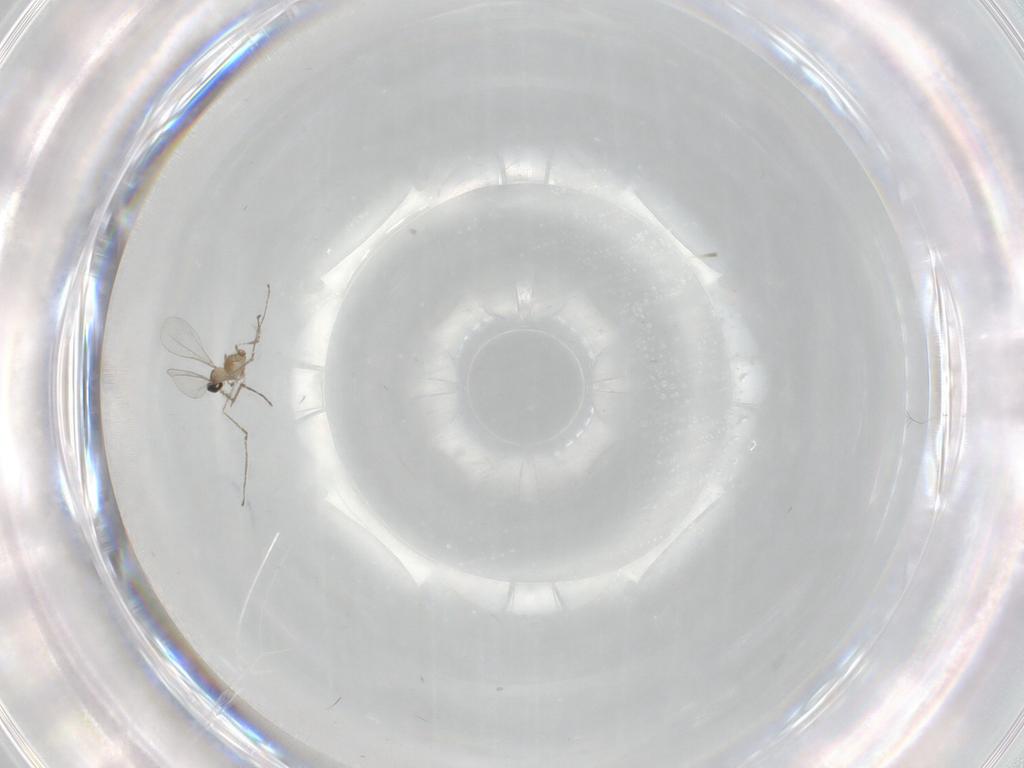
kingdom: Animalia
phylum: Arthropoda
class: Insecta
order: Diptera
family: Cecidomyiidae
